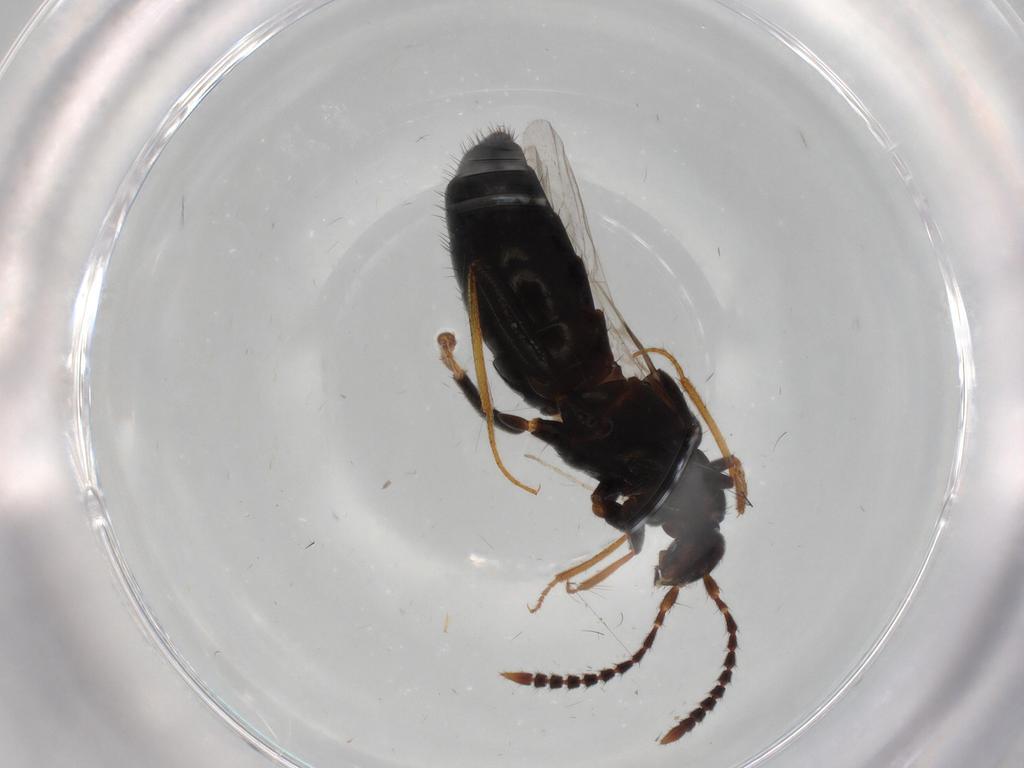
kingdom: Animalia
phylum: Arthropoda
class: Insecta
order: Coleoptera
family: Staphylinidae
